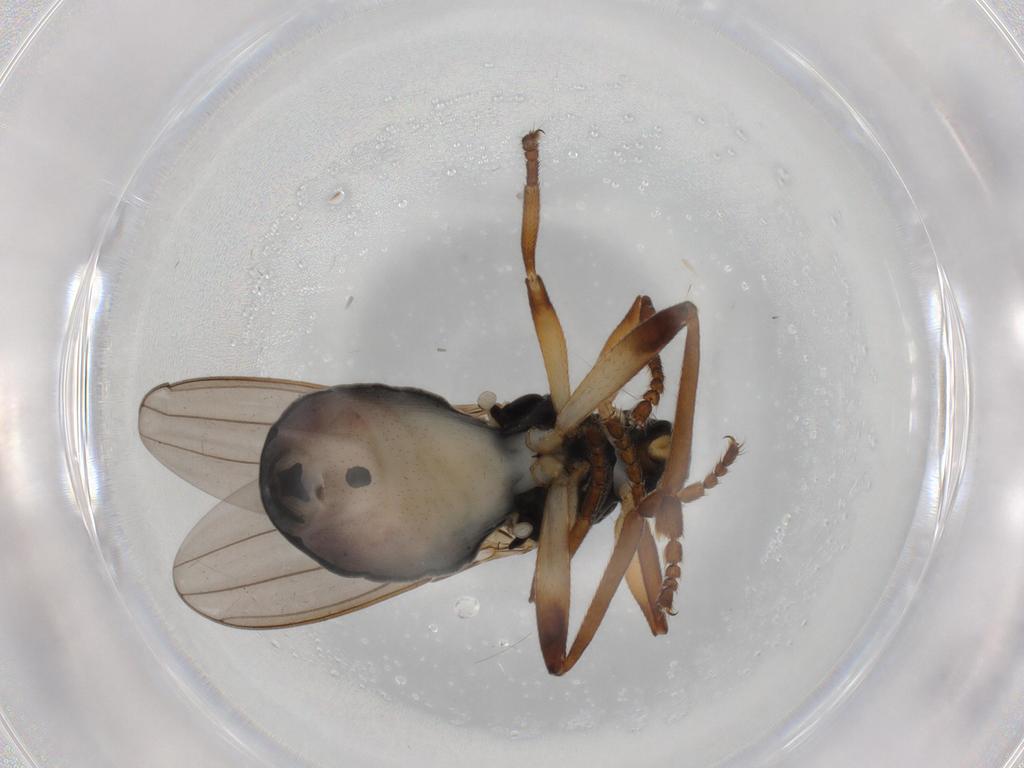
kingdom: Animalia
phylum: Arthropoda
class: Insecta
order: Diptera
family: Sphaeroceridae
